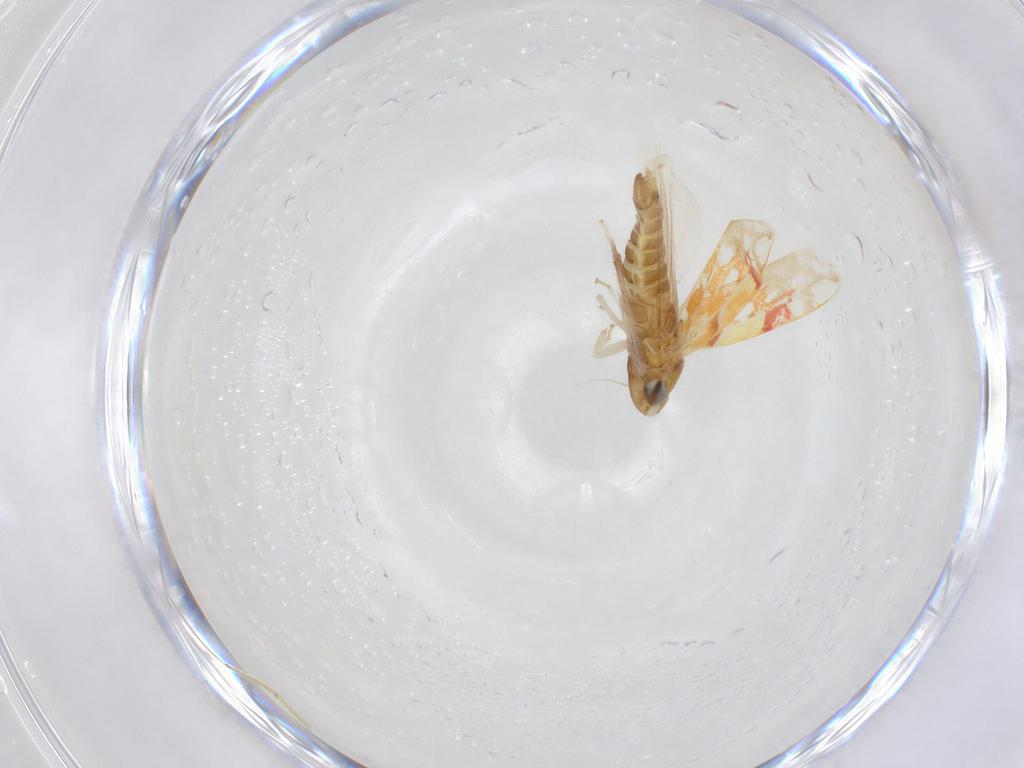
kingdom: Animalia
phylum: Arthropoda
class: Insecta
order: Hemiptera
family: Cicadellidae
